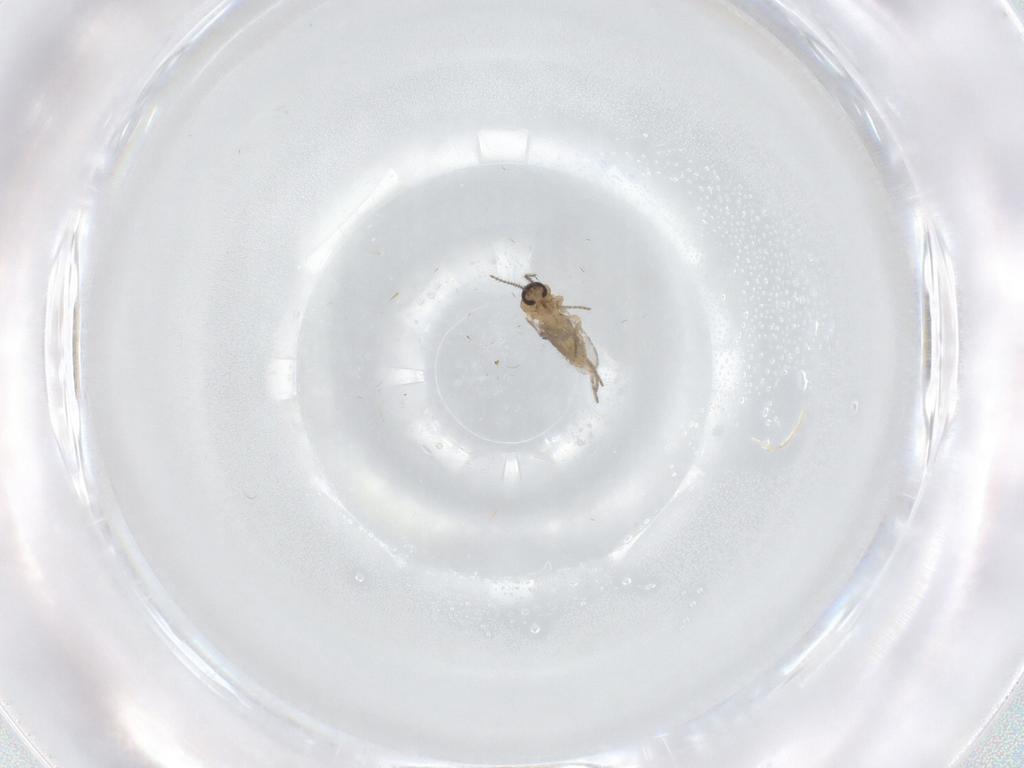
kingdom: Animalia
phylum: Arthropoda
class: Insecta
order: Diptera
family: Ceratopogonidae
